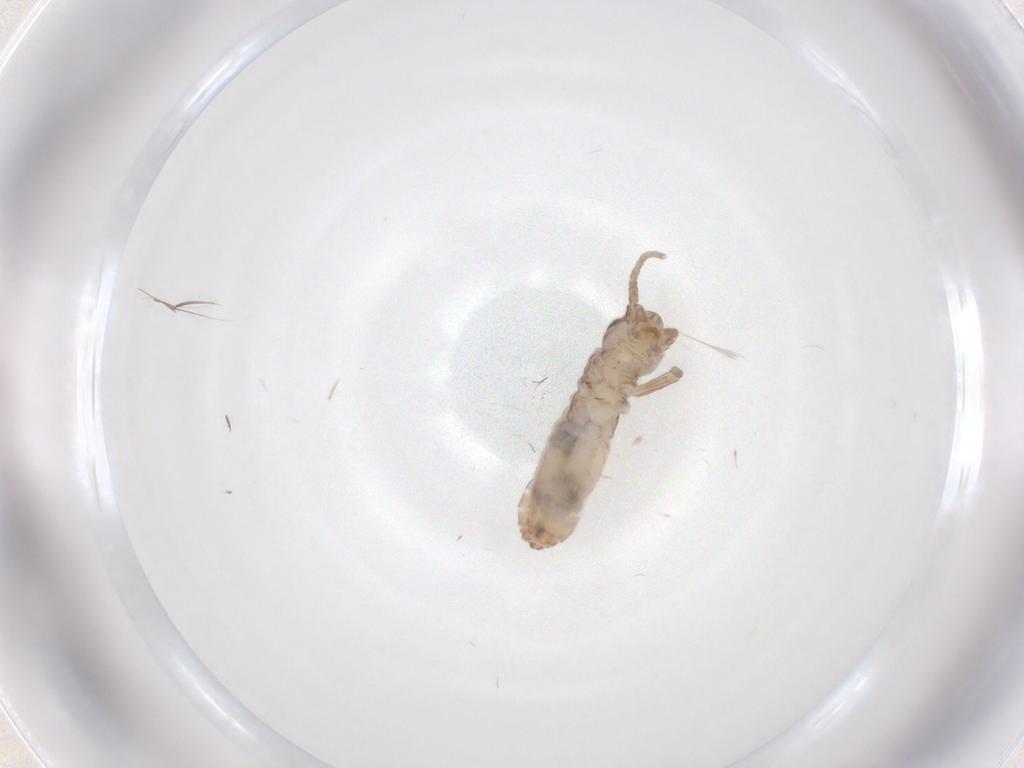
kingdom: Animalia
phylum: Arthropoda
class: Insecta
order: Orthoptera
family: Mogoplistidae
